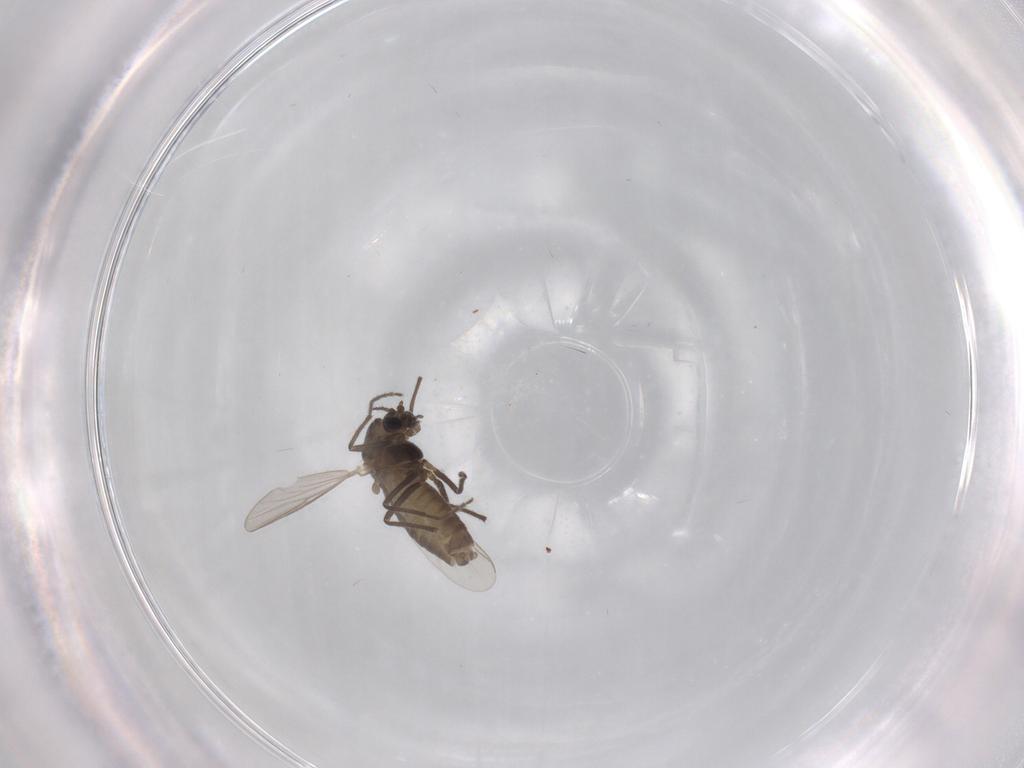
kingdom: Animalia
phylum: Arthropoda
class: Insecta
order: Diptera
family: Chironomidae
